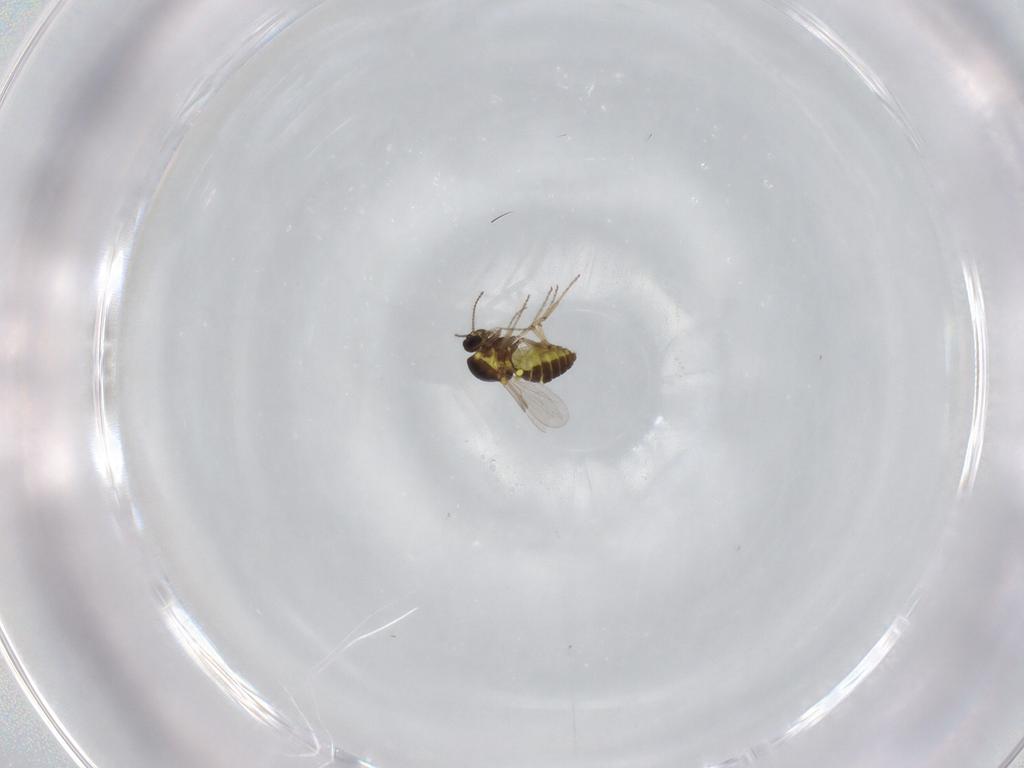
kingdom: Animalia
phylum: Arthropoda
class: Insecta
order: Diptera
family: Ceratopogonidae
